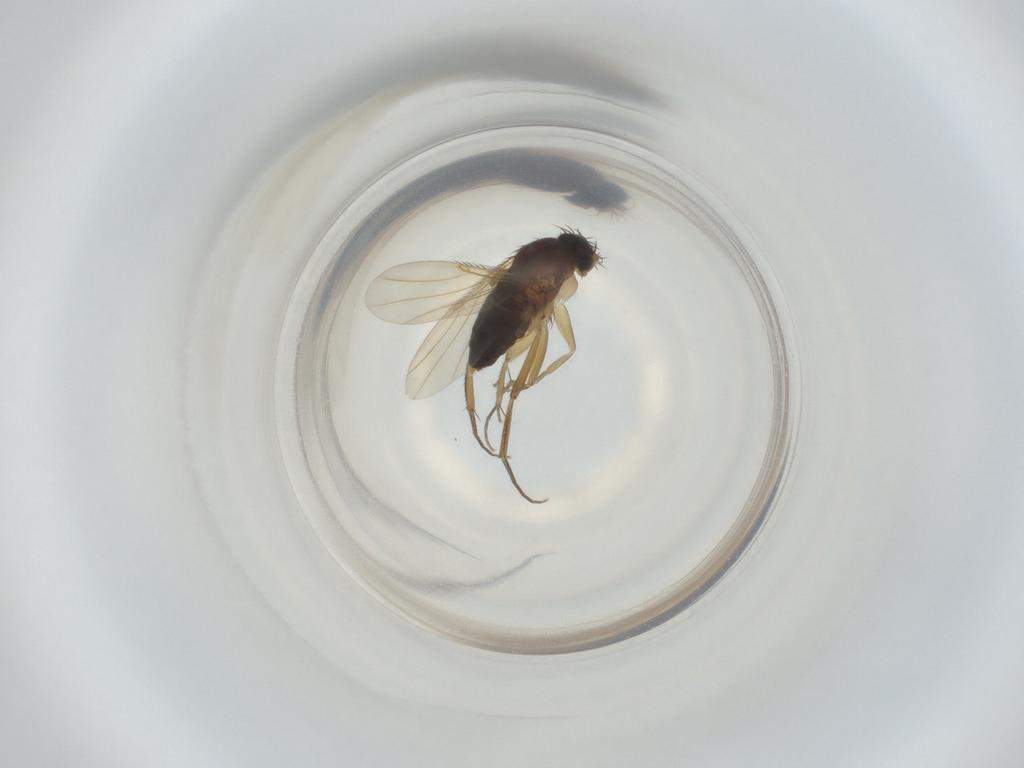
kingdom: Animalia
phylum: Arthropoda
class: Insecta
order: Diptera
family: Phoridae
